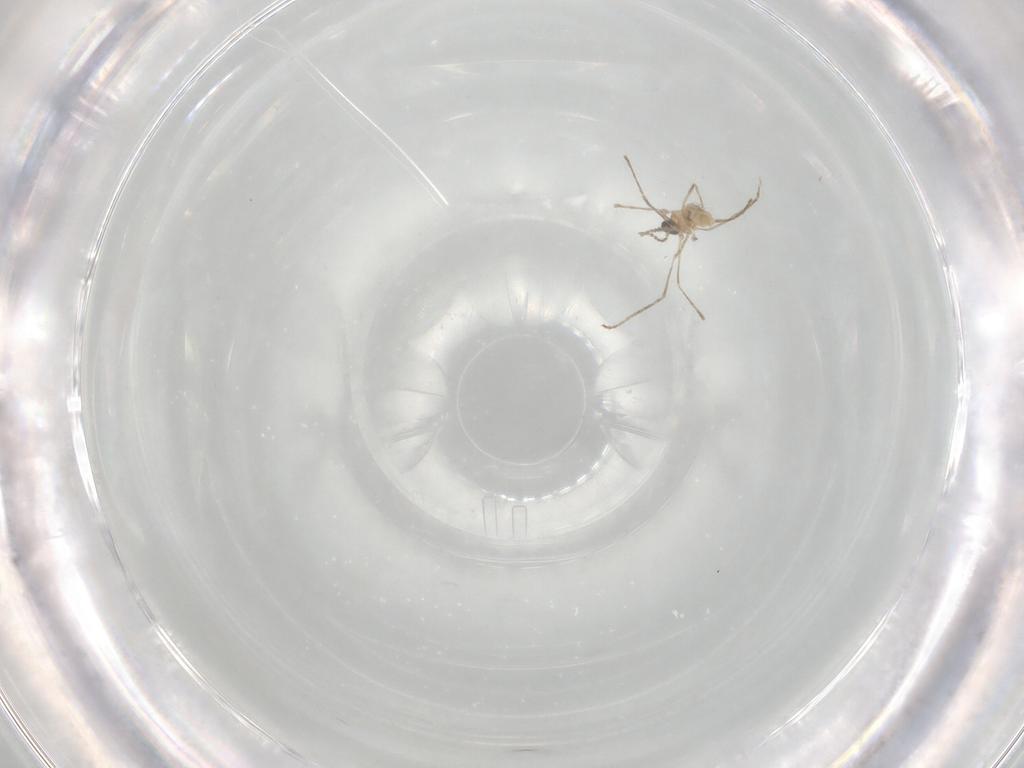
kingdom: Animalia
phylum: Arthropoda
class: Insecta
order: Diptera
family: Cecidomyiidae
